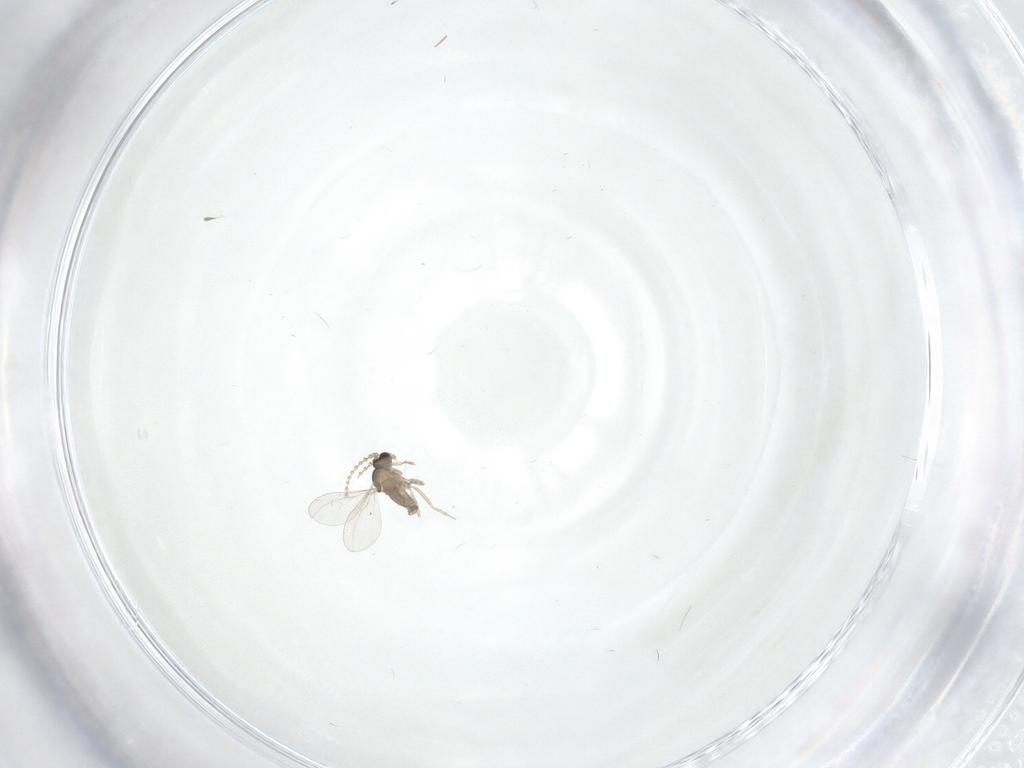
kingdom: Animalia
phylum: Arthropoda
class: Insecta
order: Diptera
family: Cecidomyiidae
